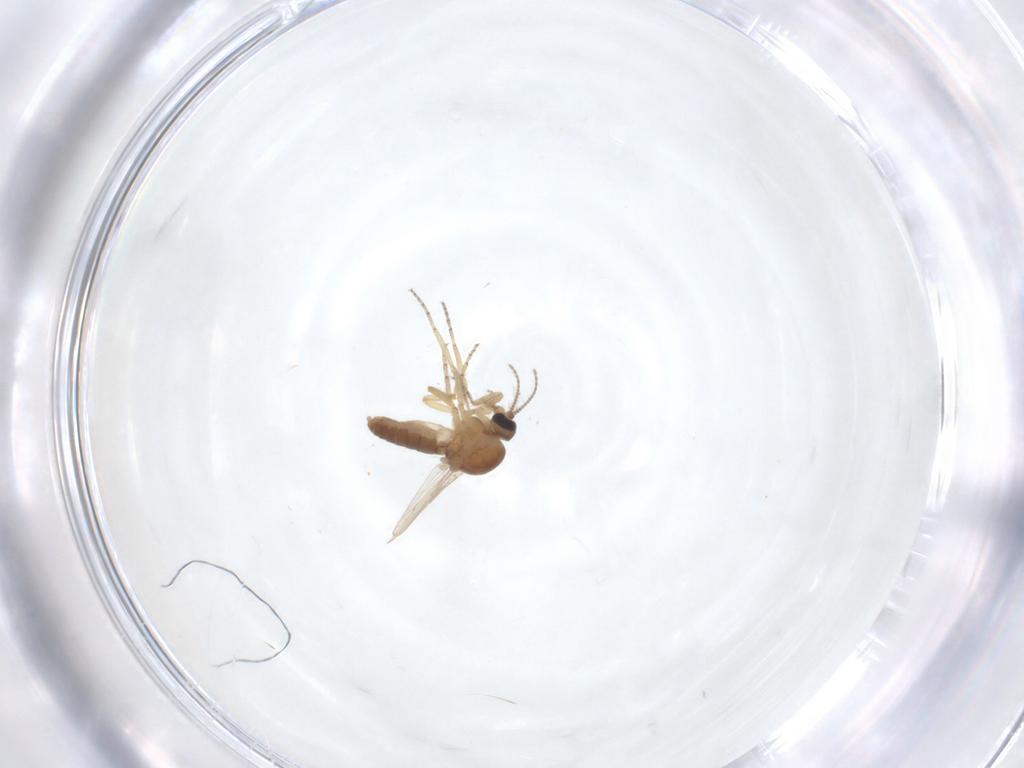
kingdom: Animalia
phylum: Arthropoda
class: Insecta
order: Diptera
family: Ceratopogonidae
